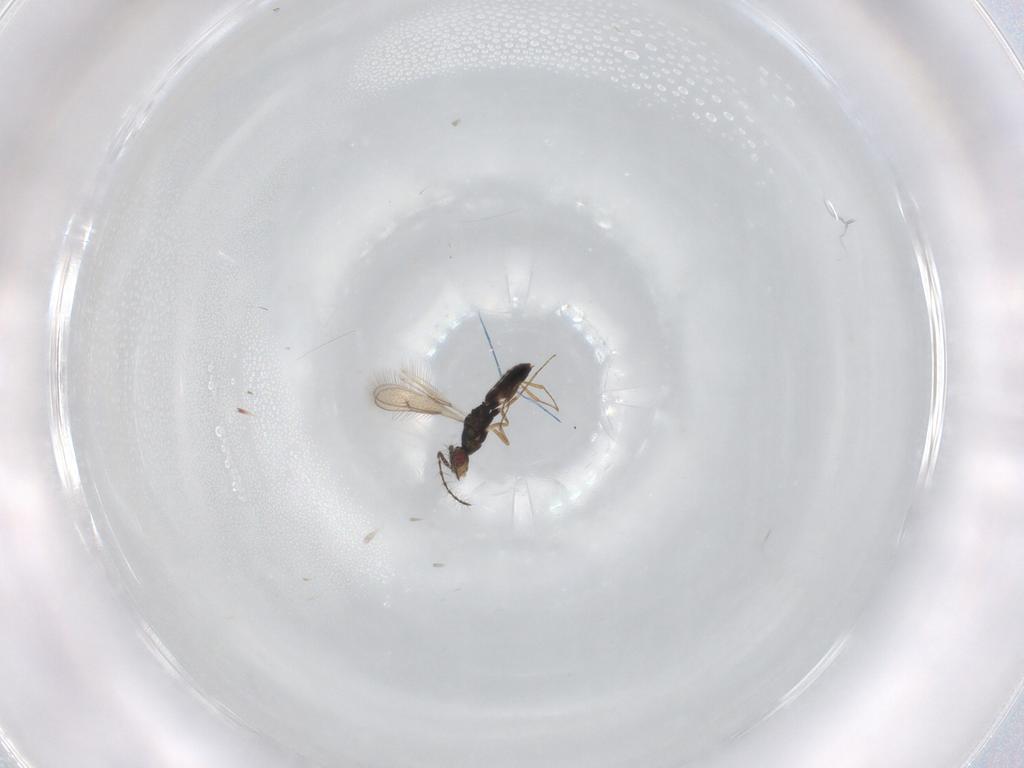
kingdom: Animalia
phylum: Arthropoda
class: Insecta
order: Hymenoptera
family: Pteromalidae
